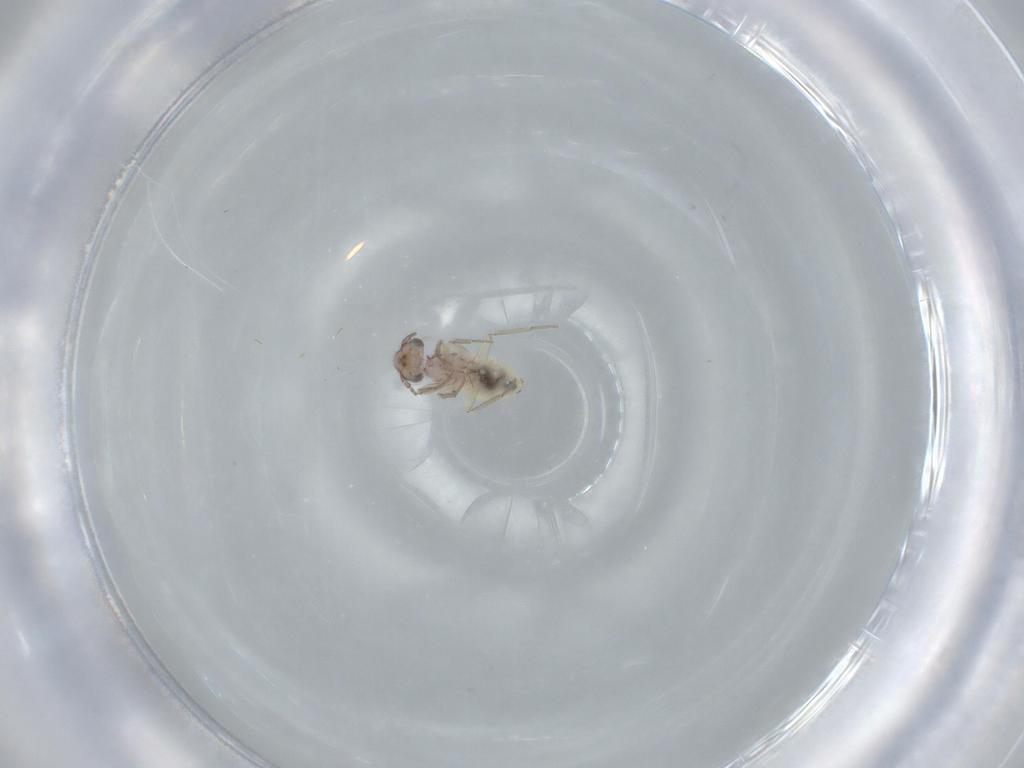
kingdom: Animalia
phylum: Arthropoda
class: Insecta
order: Psocodea
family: Lepidopsocidae
